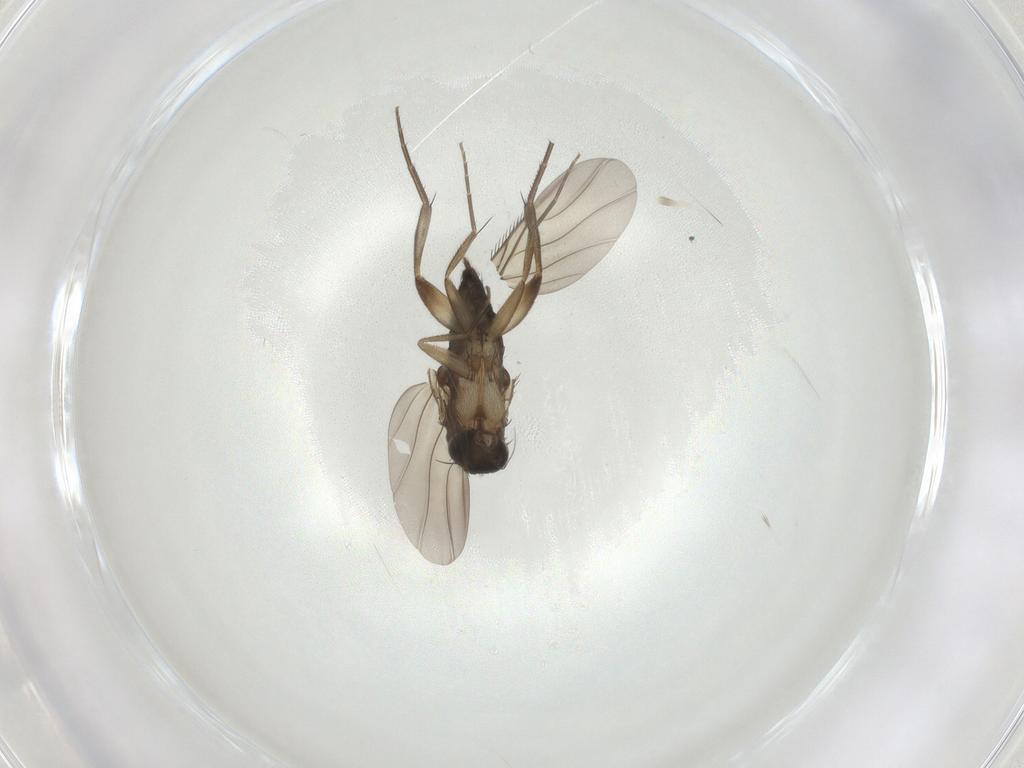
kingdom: Animalia
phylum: Arthropoda
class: Insecta
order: Diptera
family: Phoridae
